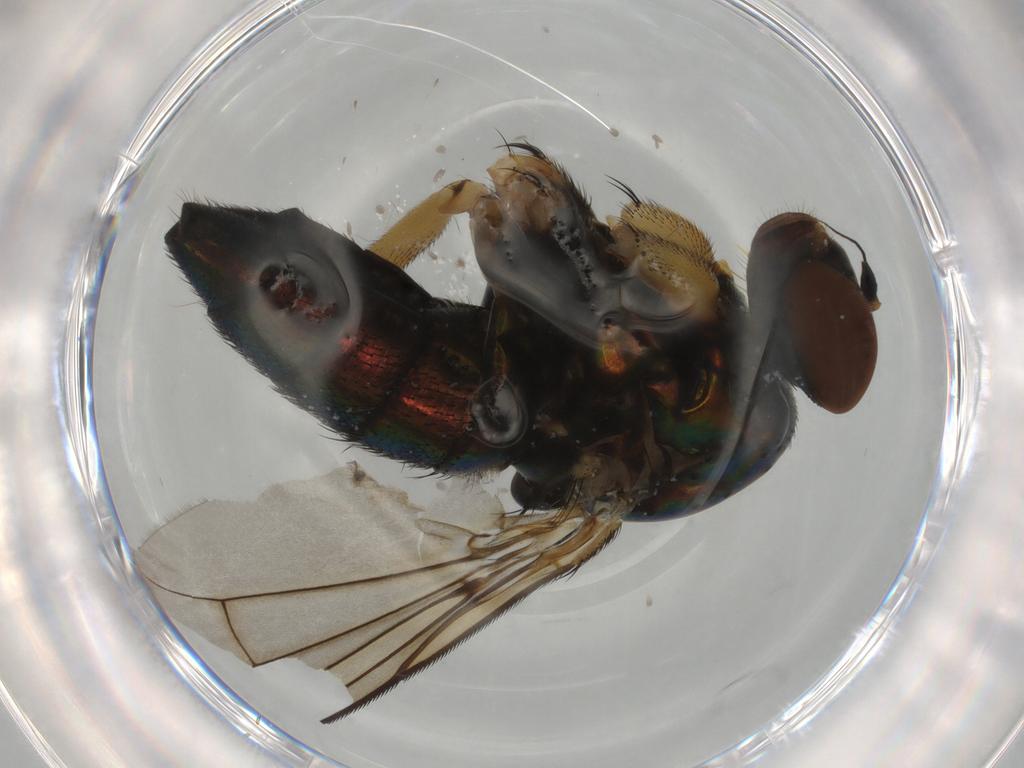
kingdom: Animalia
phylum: Arthropoda
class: Insecta
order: Diptera
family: Dolichopodidae
